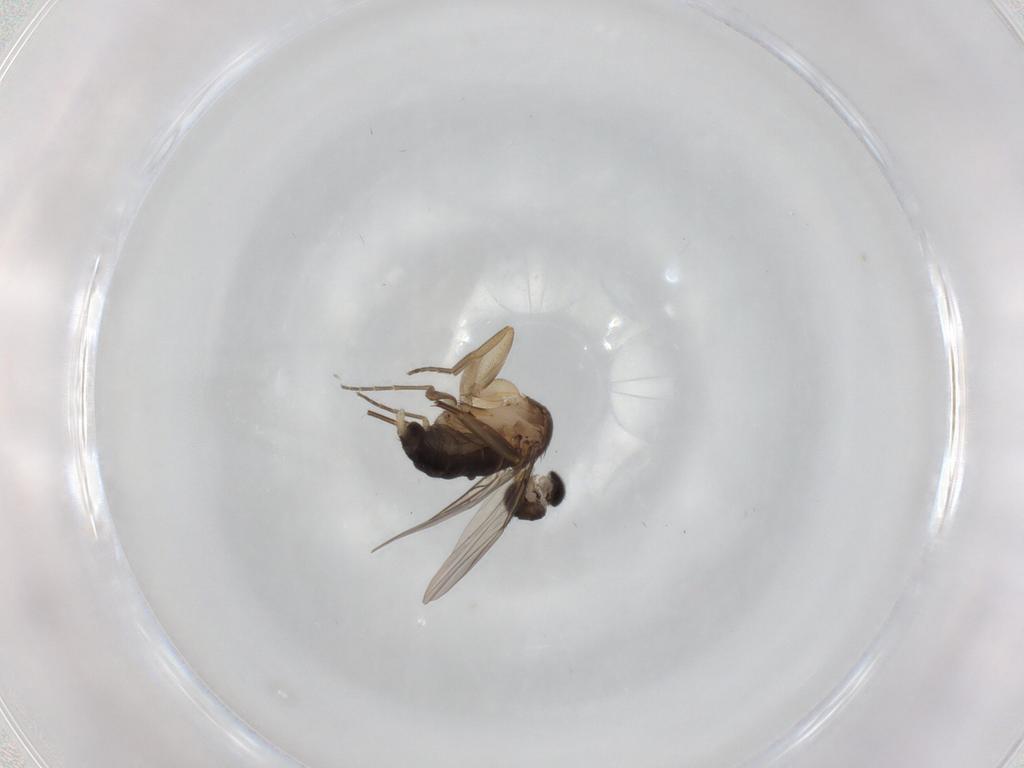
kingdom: Animalia
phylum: Arthropoda
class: Insecta
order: Diptera
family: Phoridae
